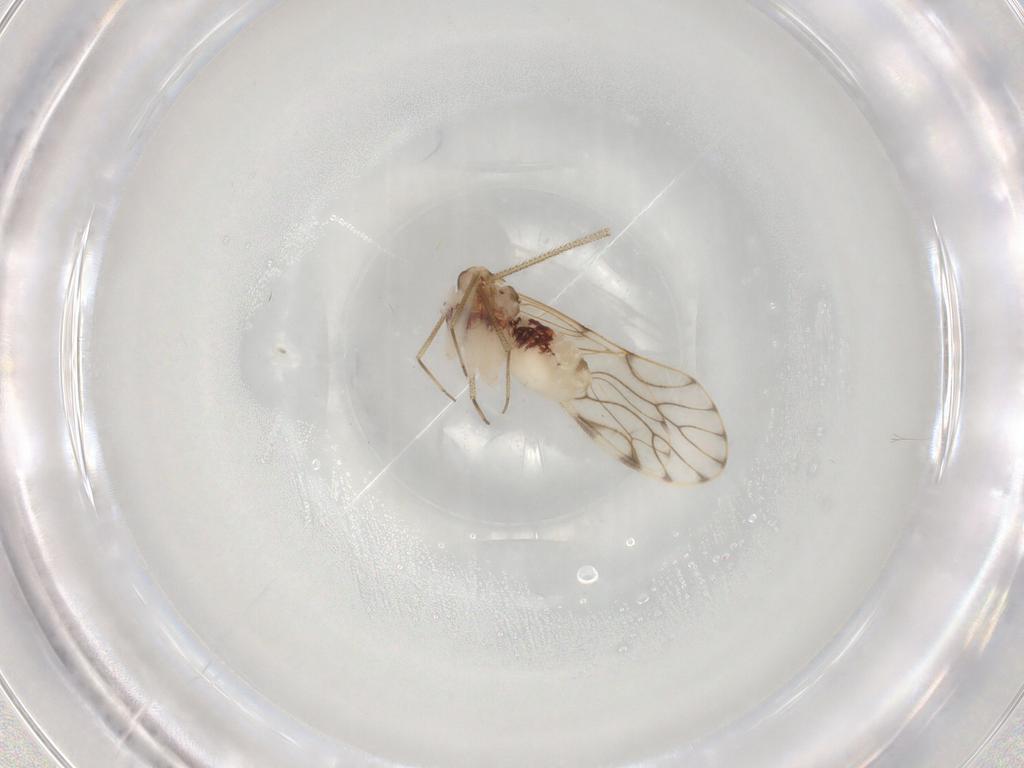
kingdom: Animalia
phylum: Arthropoda
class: Insecta
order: Psocodea
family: Epipsocidae
